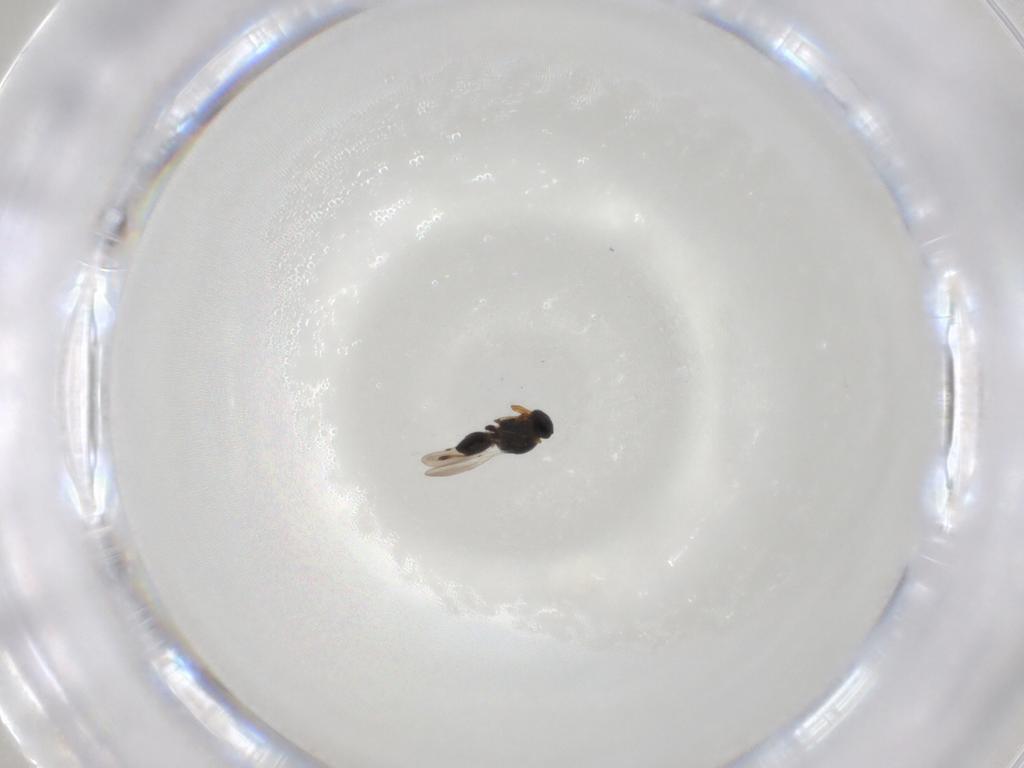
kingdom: Animalia
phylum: Arthropoda
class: Insecta
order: Hymenoptera
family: Platygastridae
